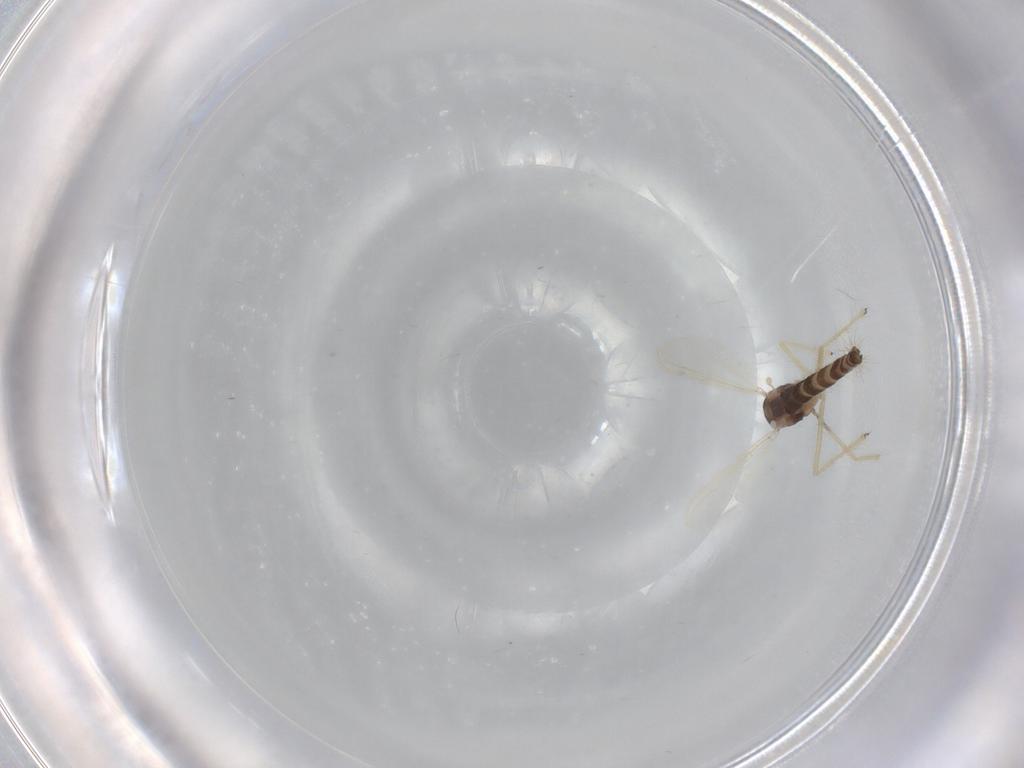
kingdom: Animalia
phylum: Arthropoda
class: Insecta
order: Diptera
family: Chironomidae
